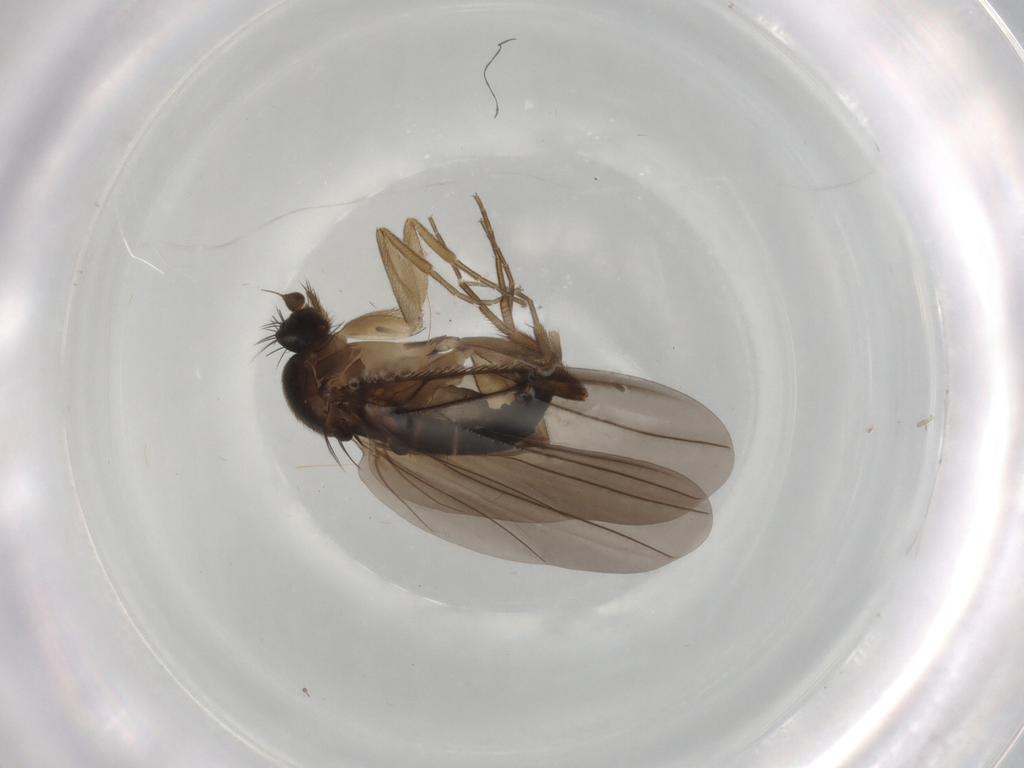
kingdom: Animalia
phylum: Arthropoda
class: Insecta
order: Diptera
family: Phoridae
